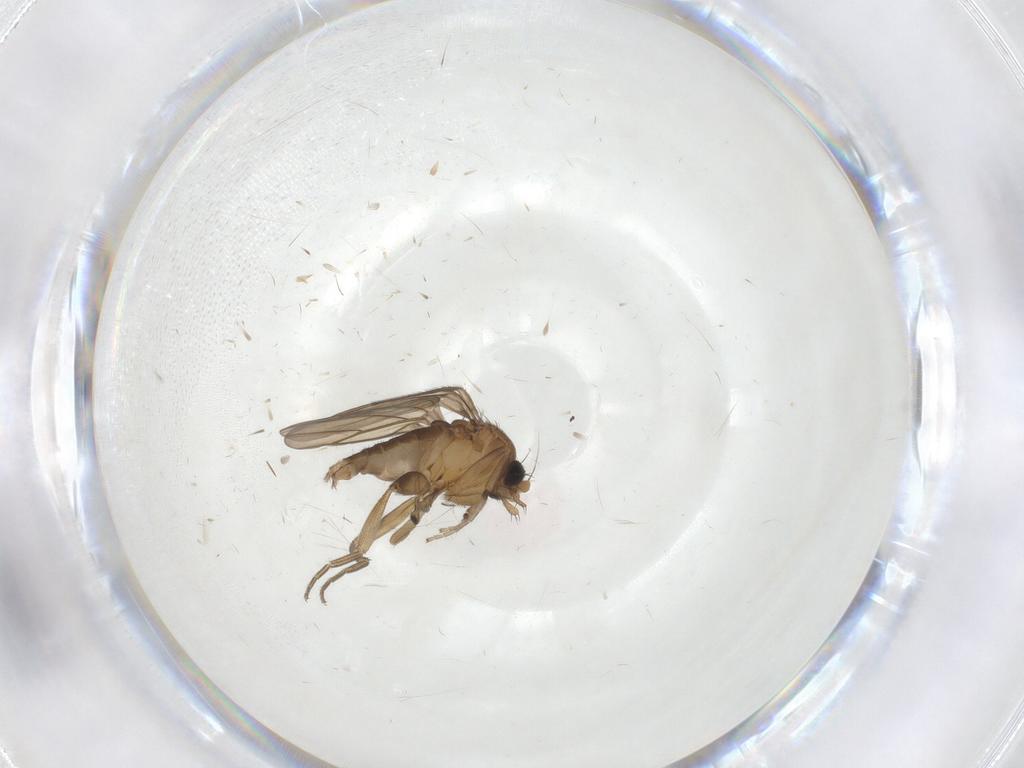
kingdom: Animalia
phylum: Arthropoda
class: Insecta
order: Diptera
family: Phoridae
